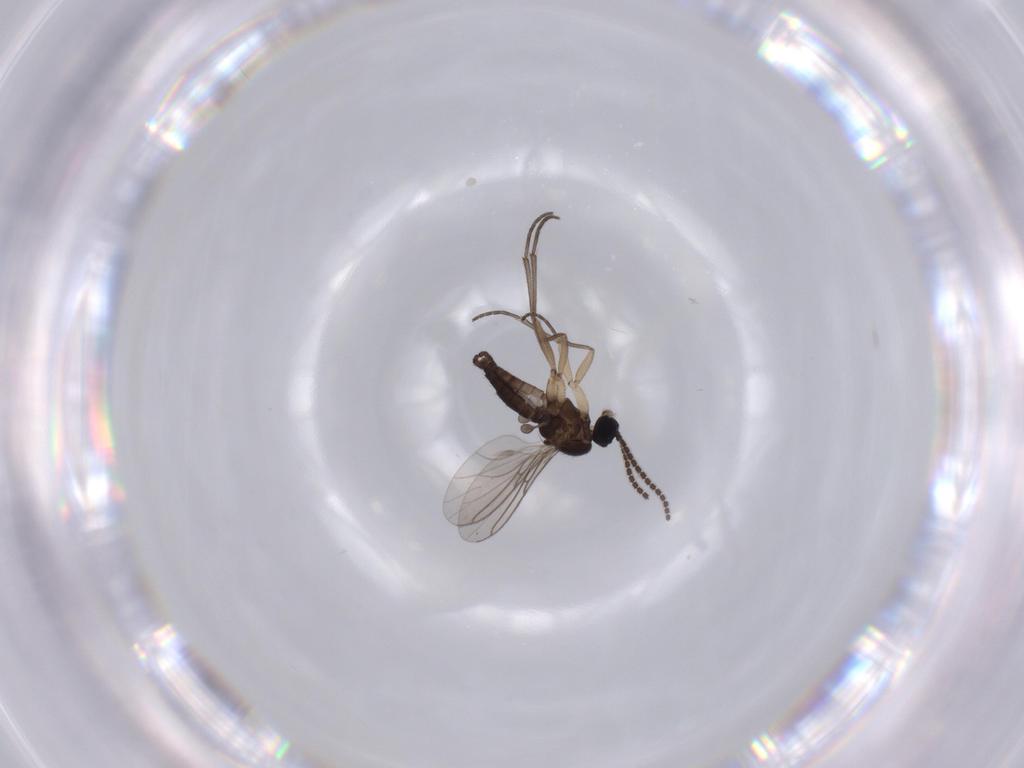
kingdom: Animalia
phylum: Arthropoda
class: Insecta
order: Diptera
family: Sciaridae
